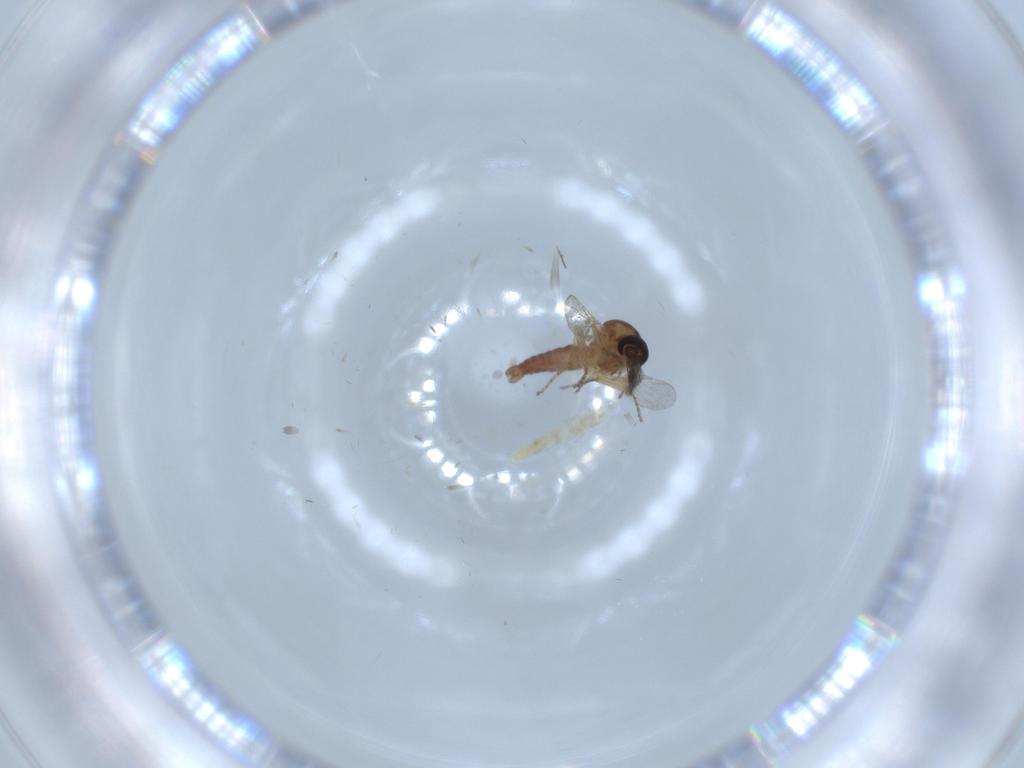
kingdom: Animalia
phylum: Arthropoda
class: Insecta
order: Diptera
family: Ceratopogonidae
